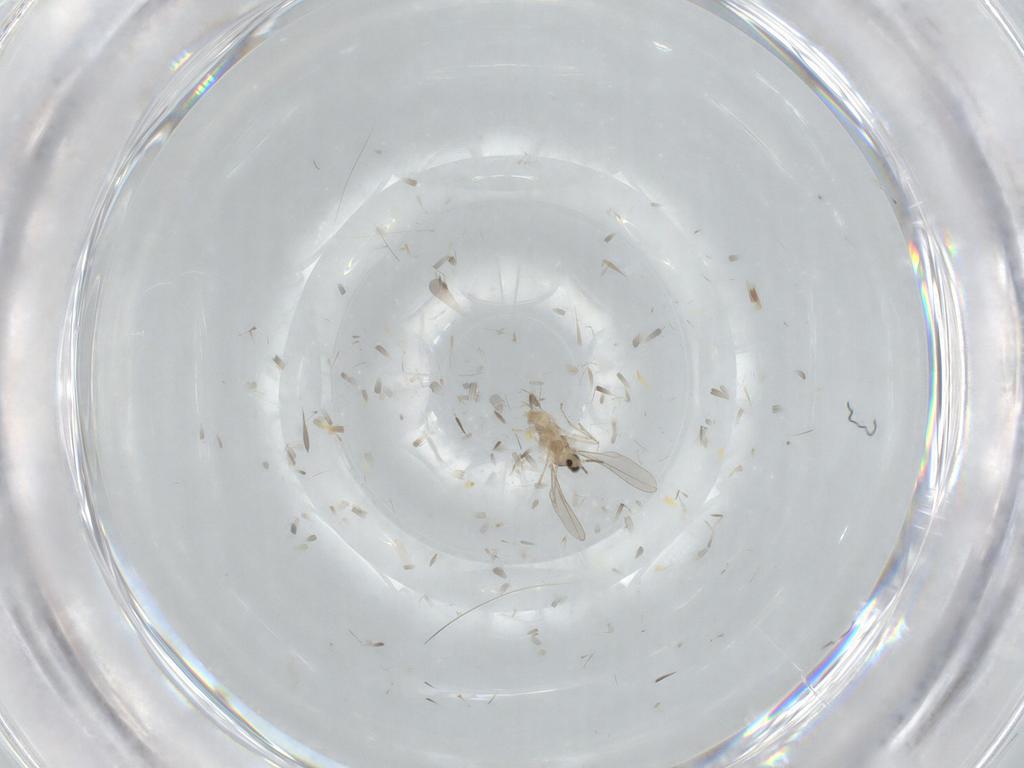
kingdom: Animalia
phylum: Arthropoda
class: Insecta
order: Diptera
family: Cecidomyiidae
